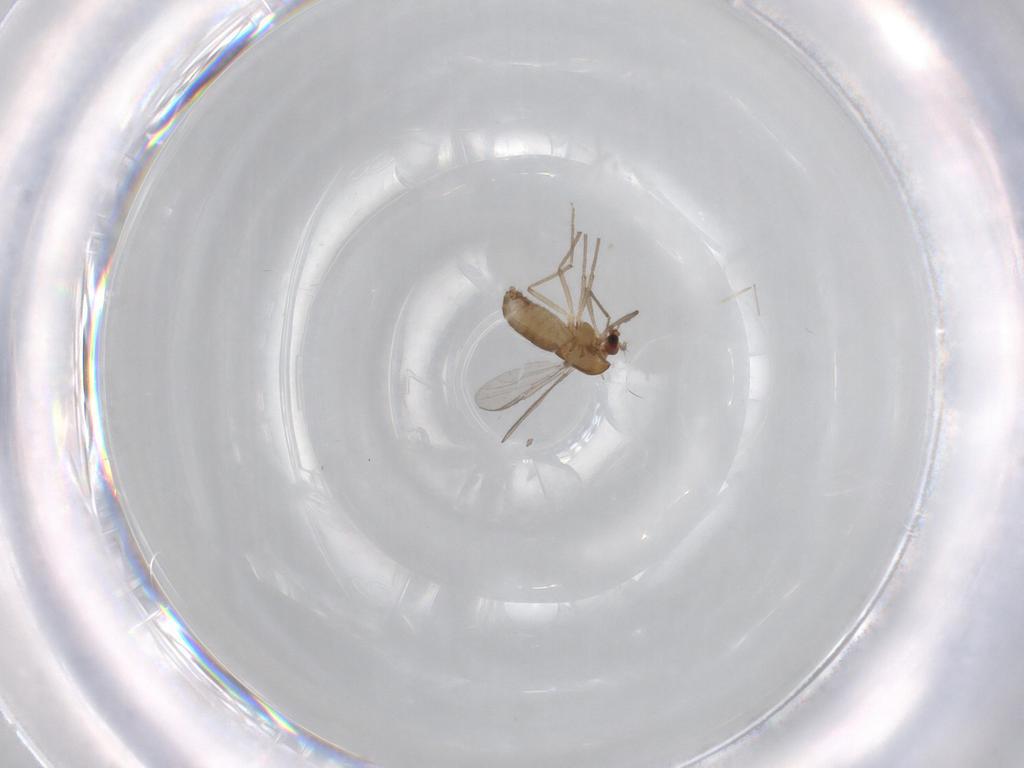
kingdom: Animalia
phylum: Arthropoda
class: Insecta
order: Diptera
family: Chironomidae
